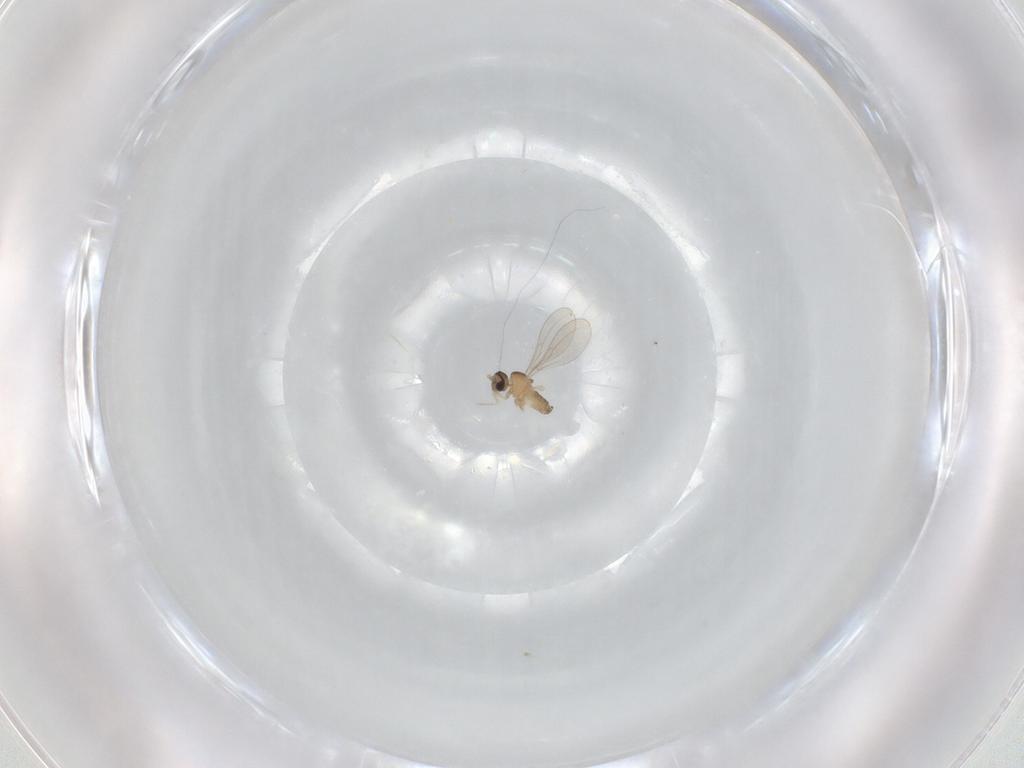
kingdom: Animalia
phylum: Arthropoda
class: Insecta
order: Diptera
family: Cecidomyiidae
